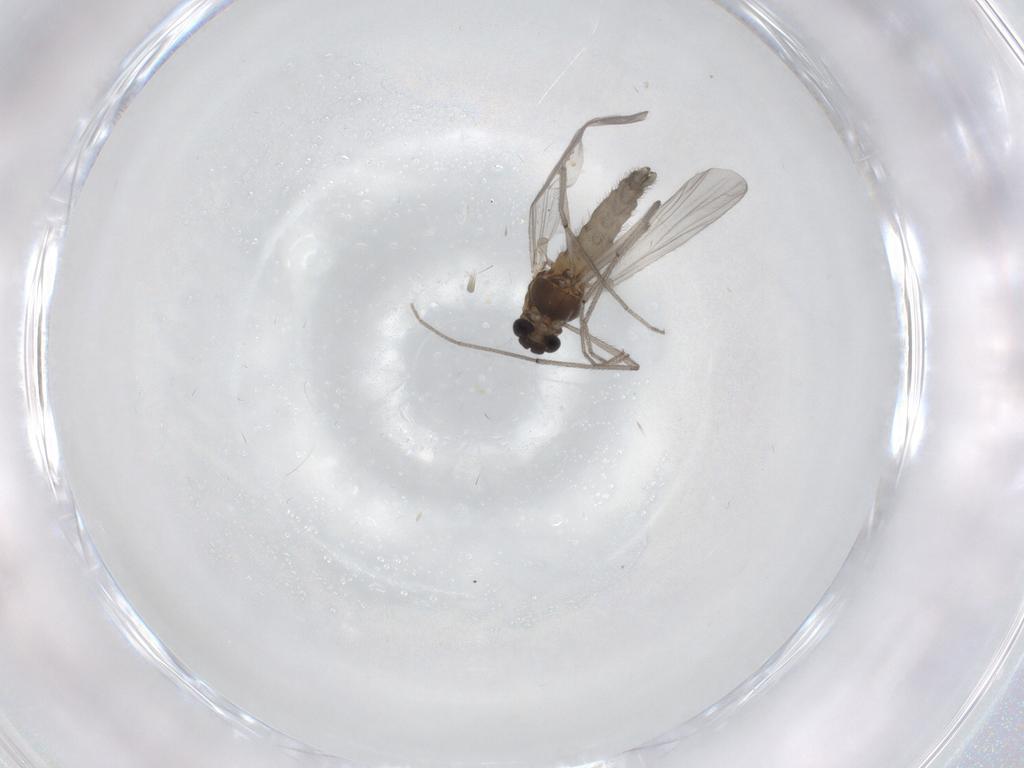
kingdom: Animalia
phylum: Arthropoda
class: Insecta
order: Diptera
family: Chironomidae
